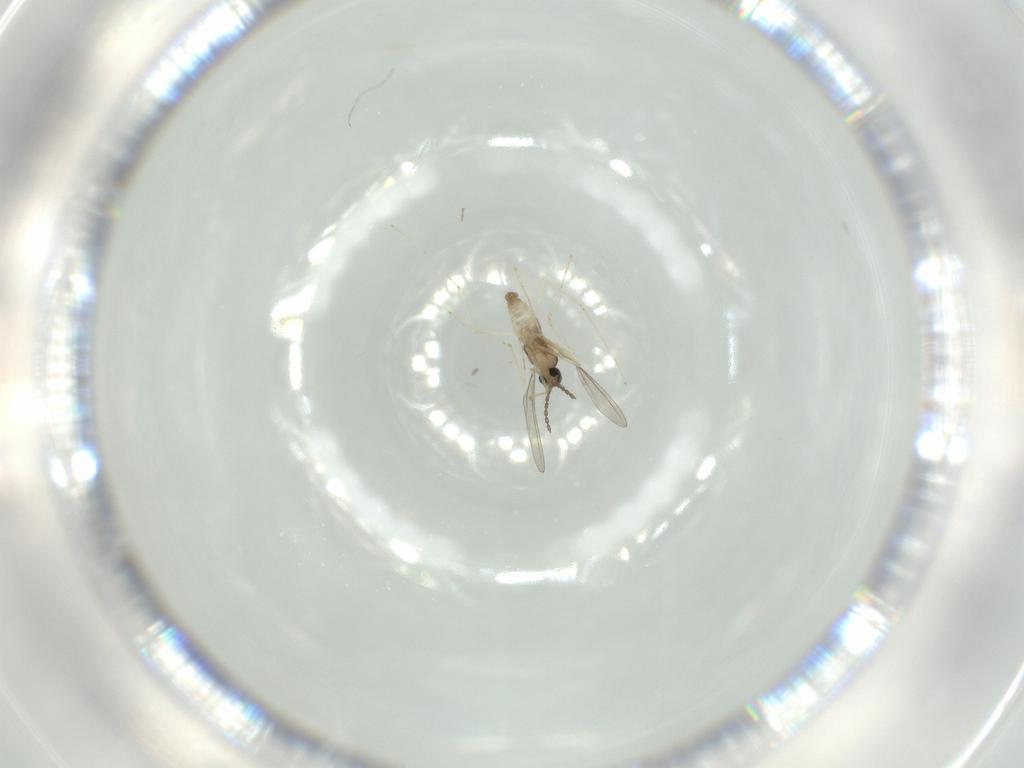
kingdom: Animalia
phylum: Arthropoda
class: Insecta
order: Diptera
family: Cecidomyiidae
